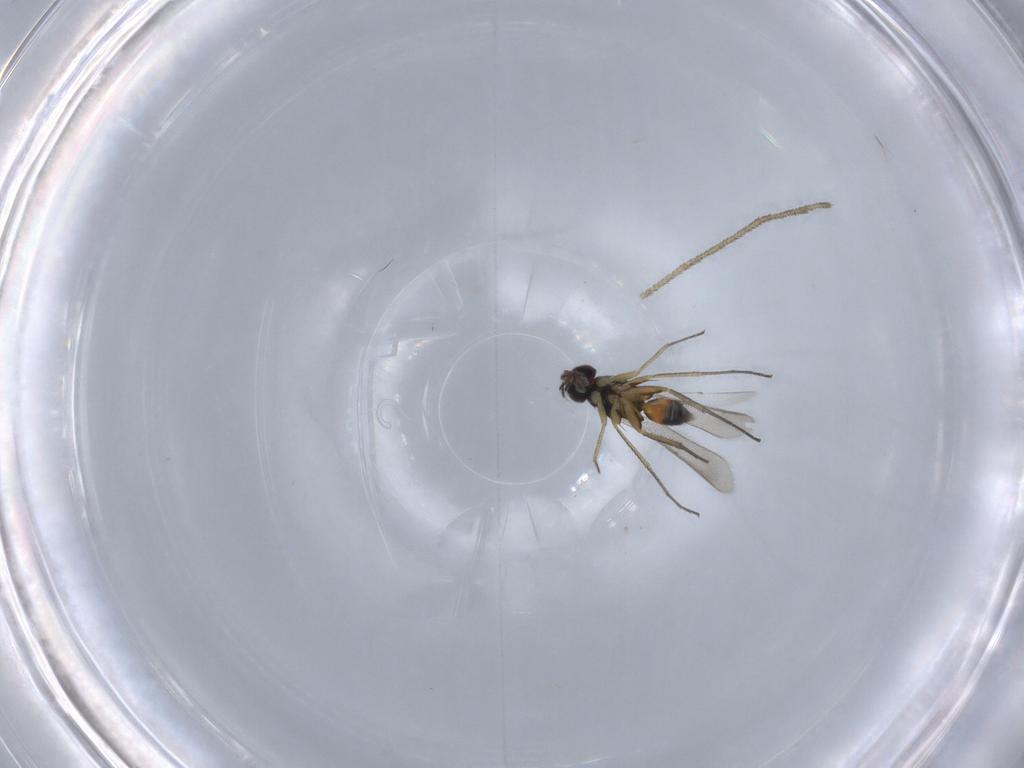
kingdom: Animalia
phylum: Arthropoda
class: Insecta
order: Hymenoptera
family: Eulophidae
